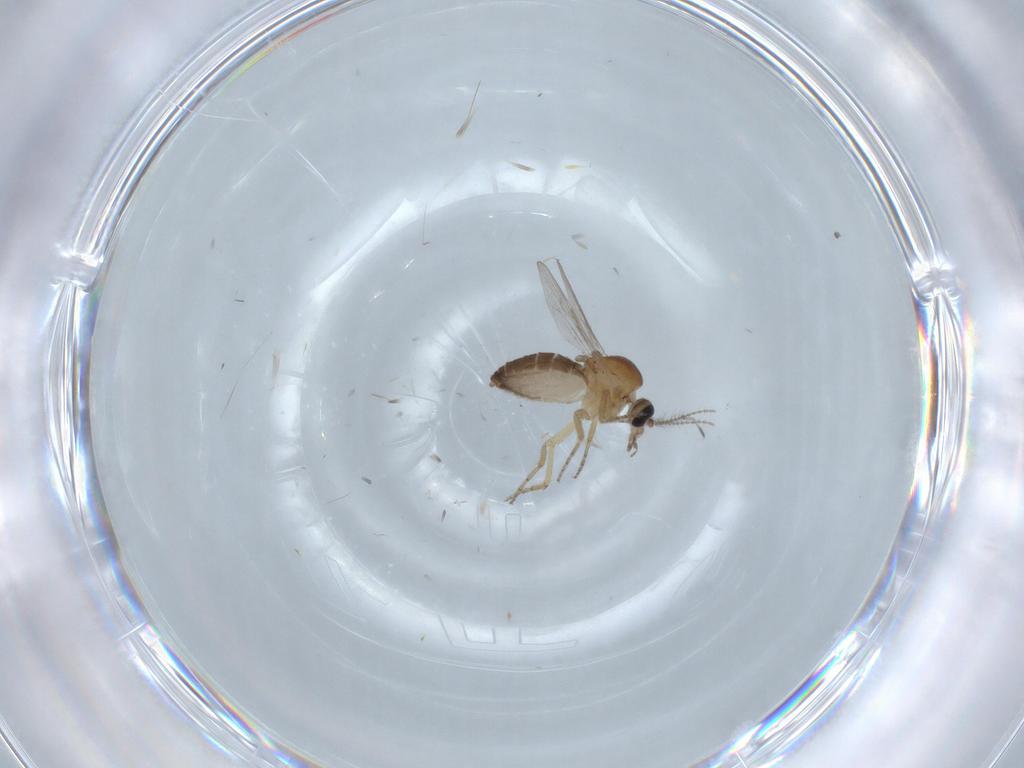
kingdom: Animalia
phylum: Arthropoda
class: Insecta
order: Diptera
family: Ceratopogonidae
